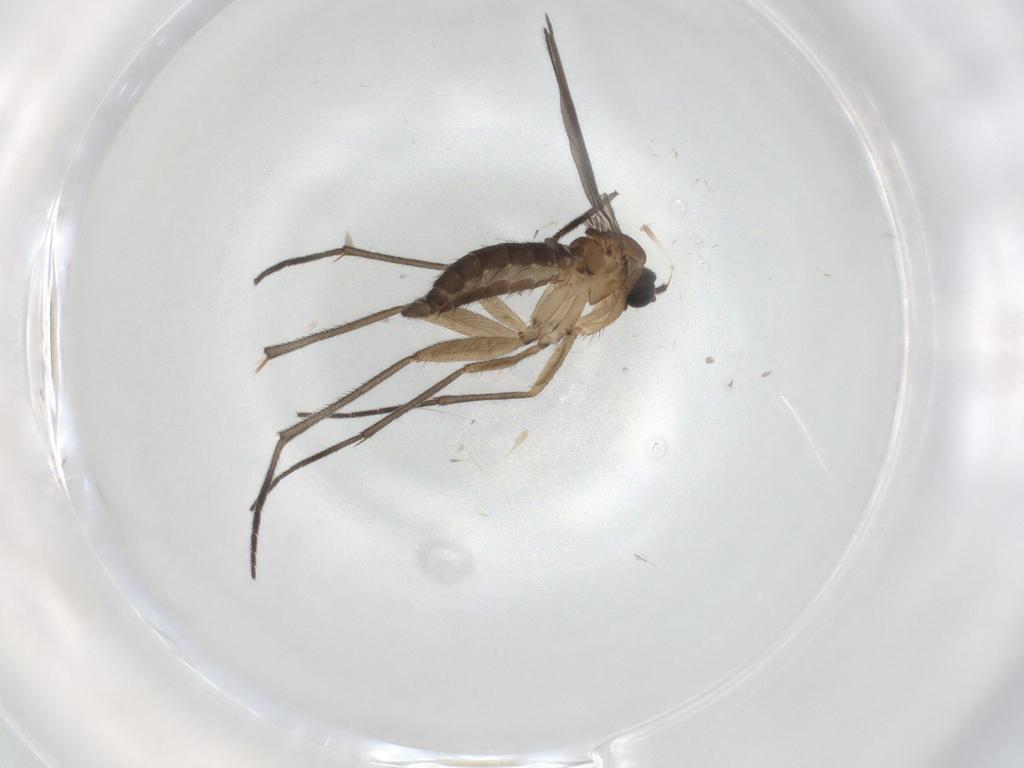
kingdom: Animalia
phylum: Arthropoda
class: Insecta
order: Diptera
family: Sciaridae
